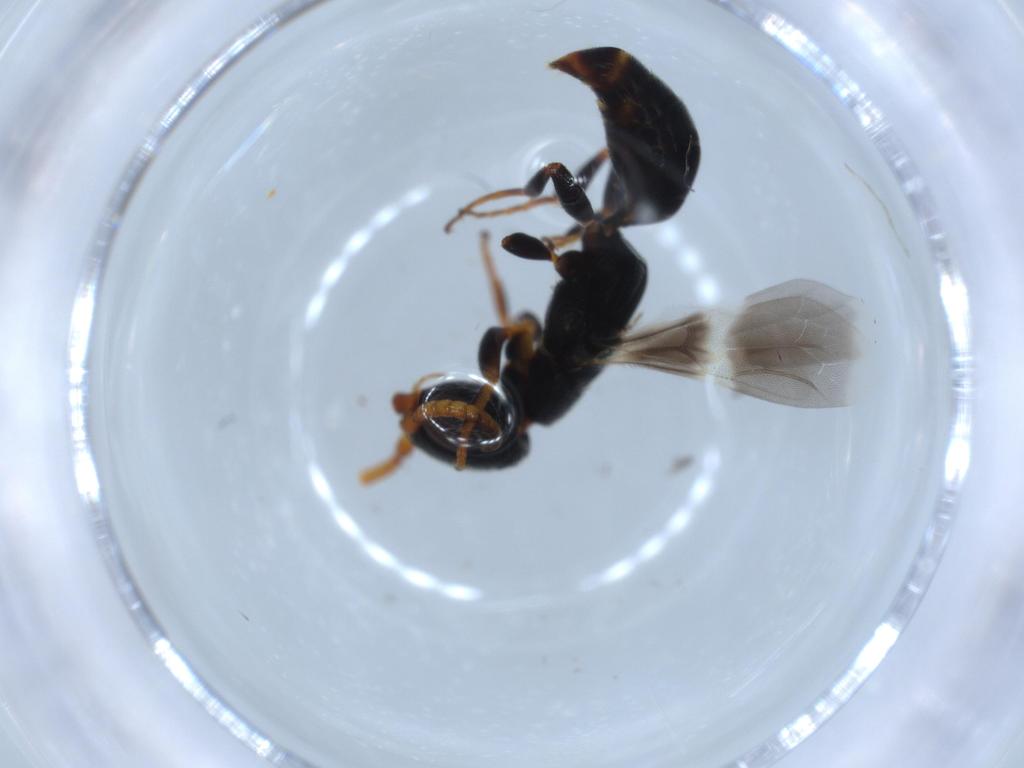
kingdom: Animalia
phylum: Arthropoda
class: Insecta
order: Hymenoptera
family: Bethylidae
